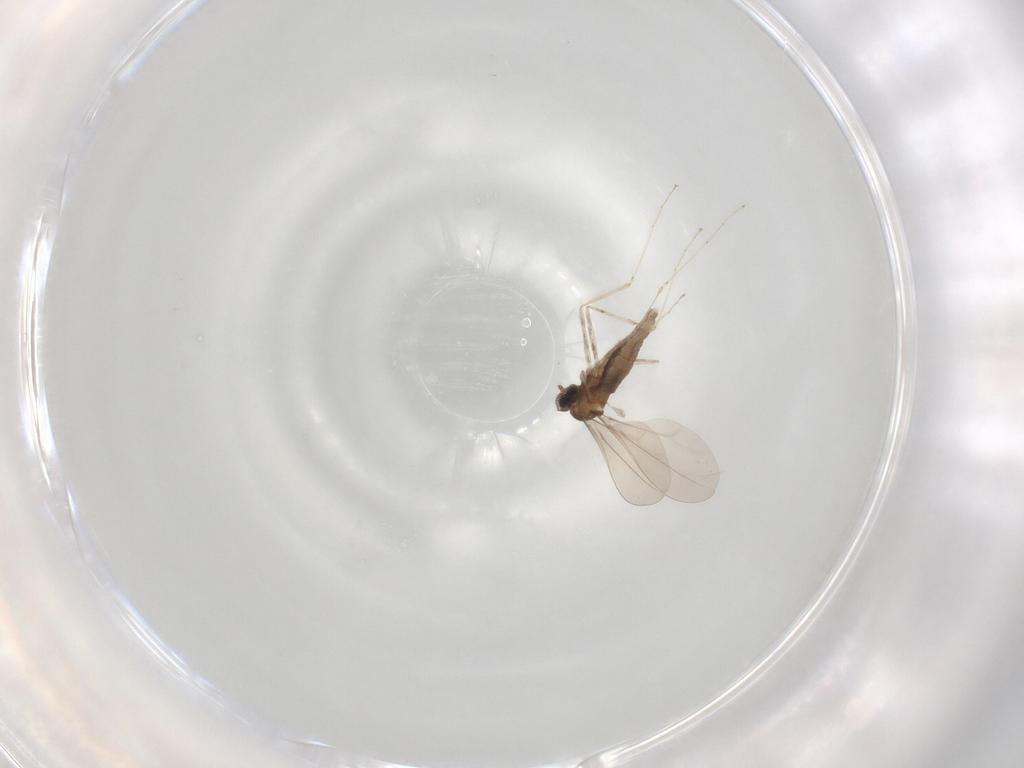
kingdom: Animalia
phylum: Arthropoda
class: Insecta
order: Diptera
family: Cecidomyiidae
